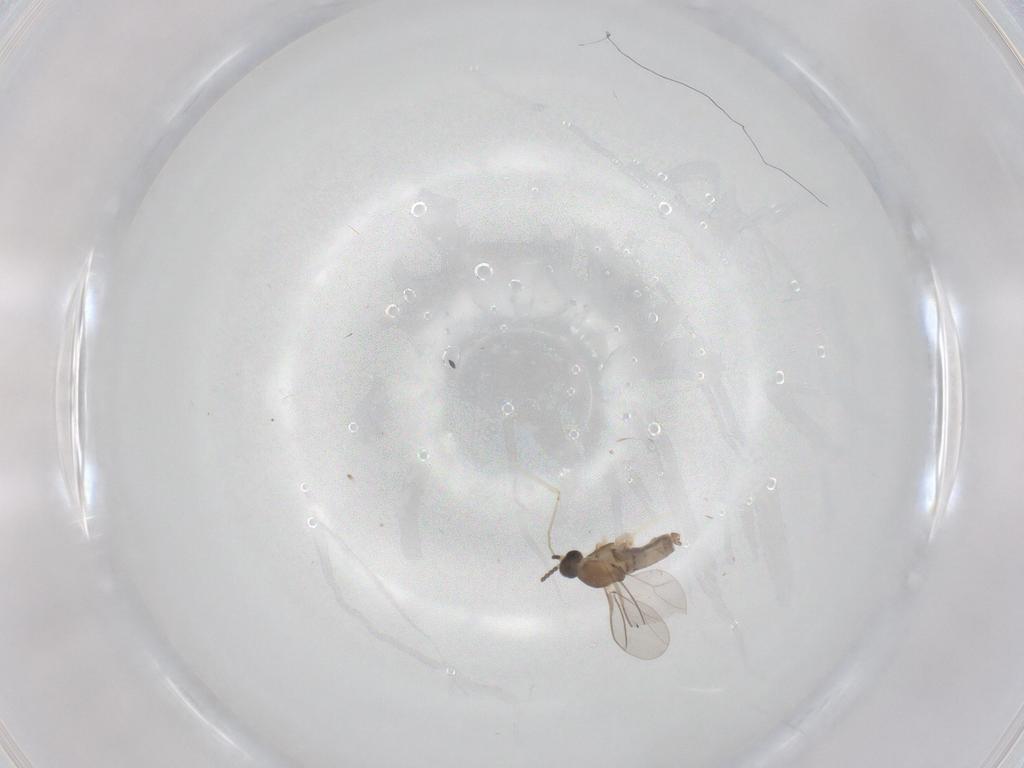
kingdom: Animalia
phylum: Arthropoda
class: Insecta
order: Diptera
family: Cecidomyiidae
